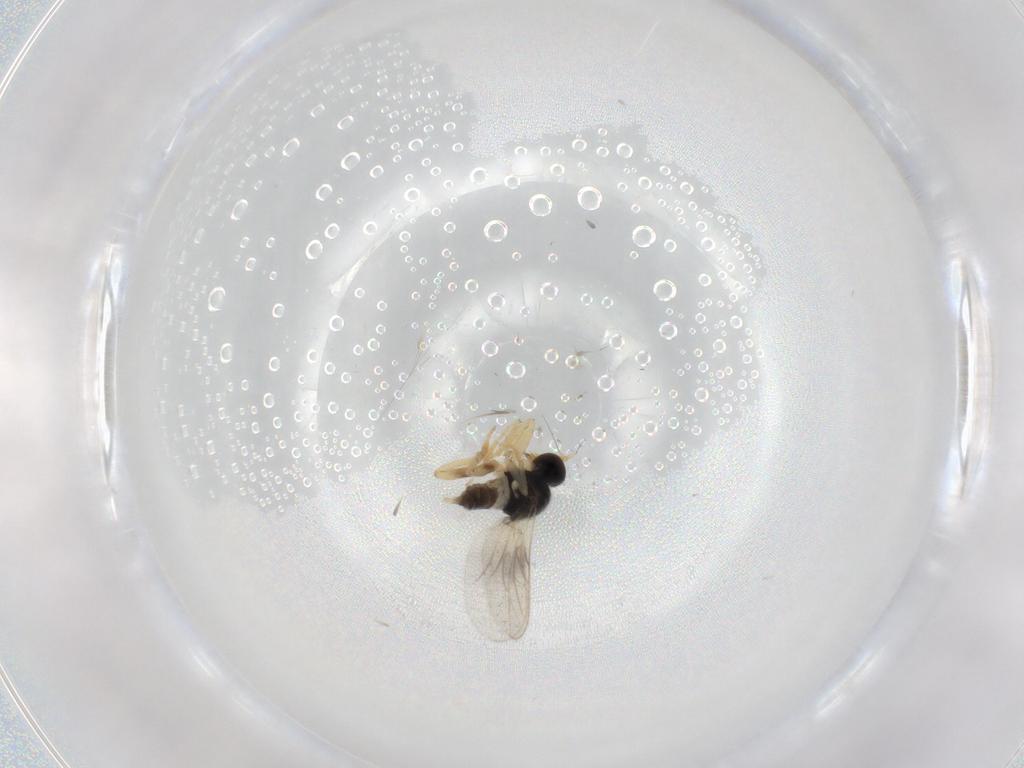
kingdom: Animalia
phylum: Arthropoda
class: Insecta
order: Diptera
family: Hybotidae
